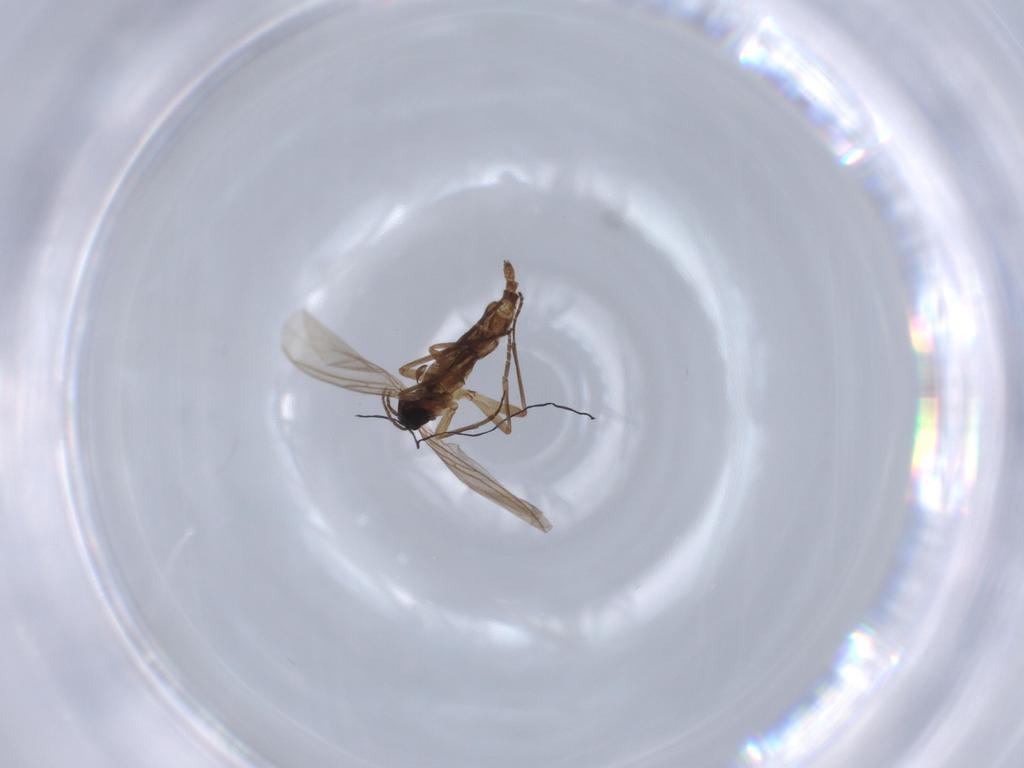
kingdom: Animalia
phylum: Arthropoda
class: Insecta
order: Diptera
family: Sciaridae
